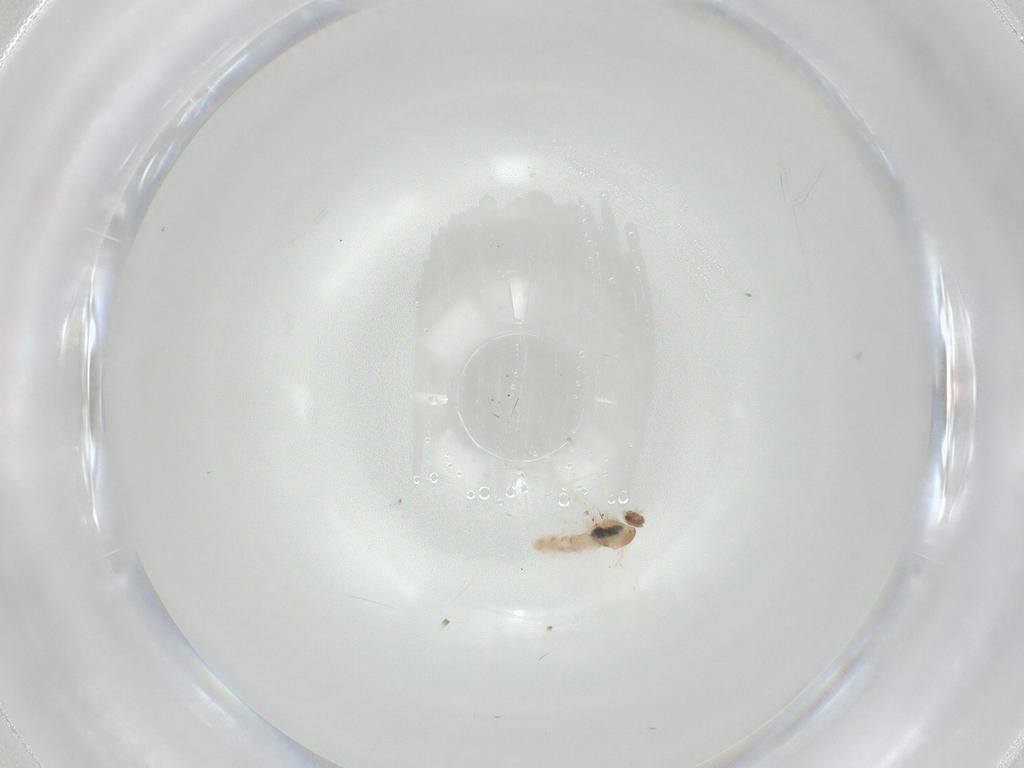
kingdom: Animalia
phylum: Arthropoda
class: Insecta
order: Diptera
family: Cecidomyiidae
